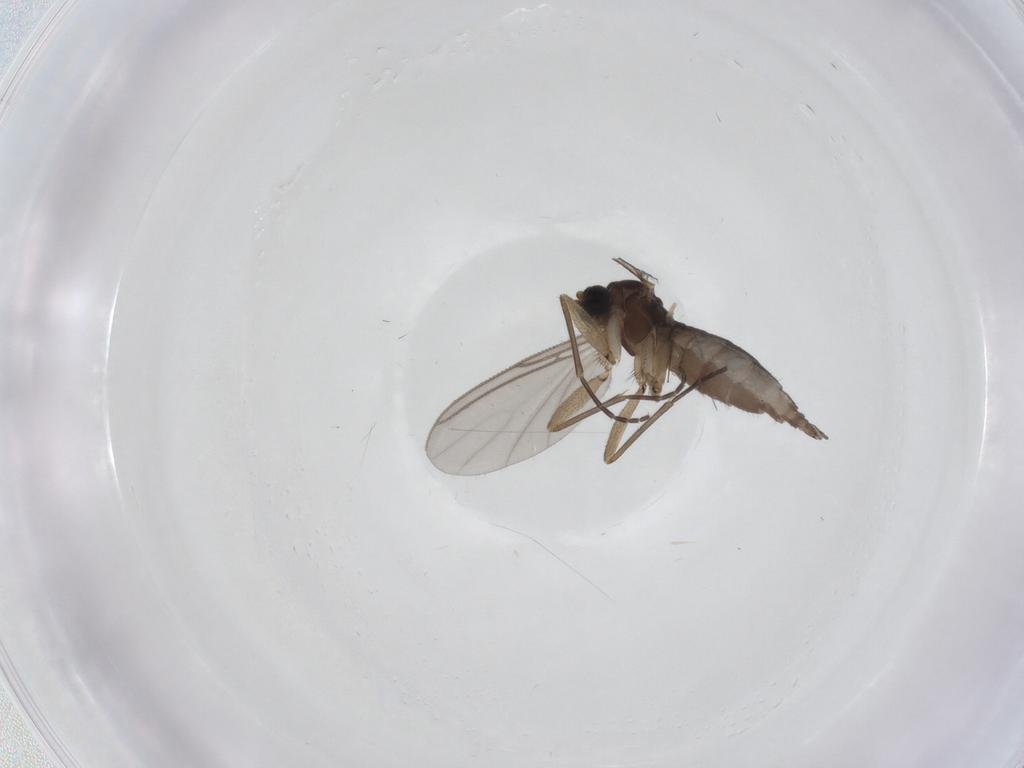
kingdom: Animalia
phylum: Arthropoda
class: Insecta
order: Diptera
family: Sciaridae
